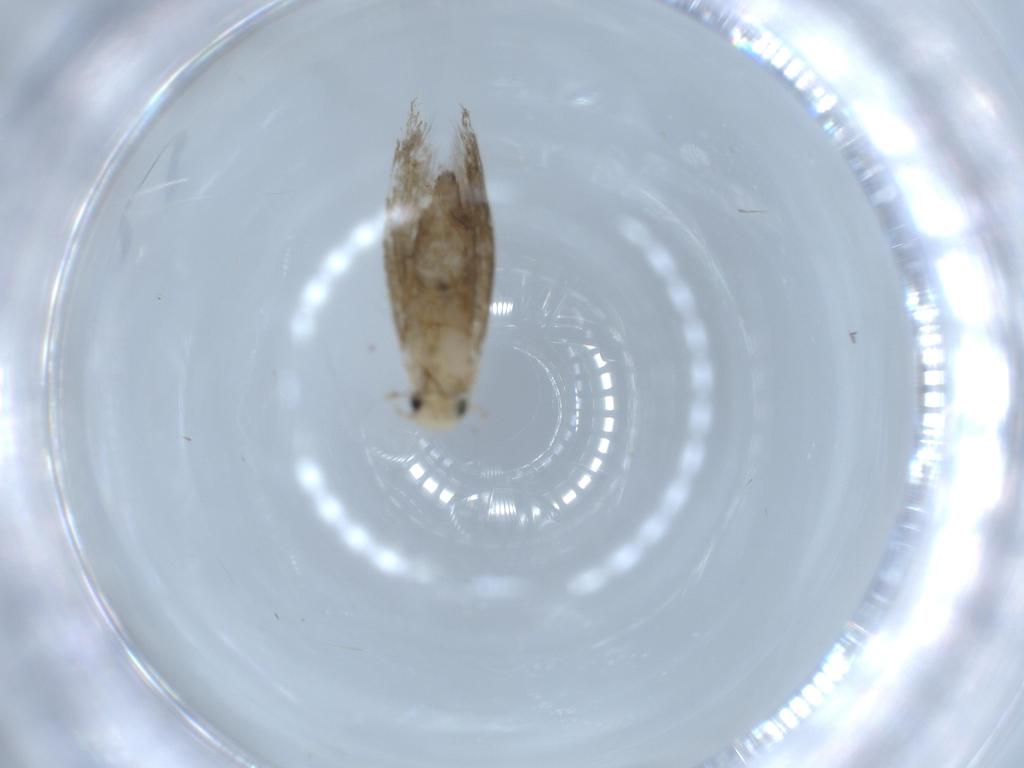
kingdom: Animalia
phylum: Arthropoda
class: Insecta
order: Lepidoptera
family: Tineidae
